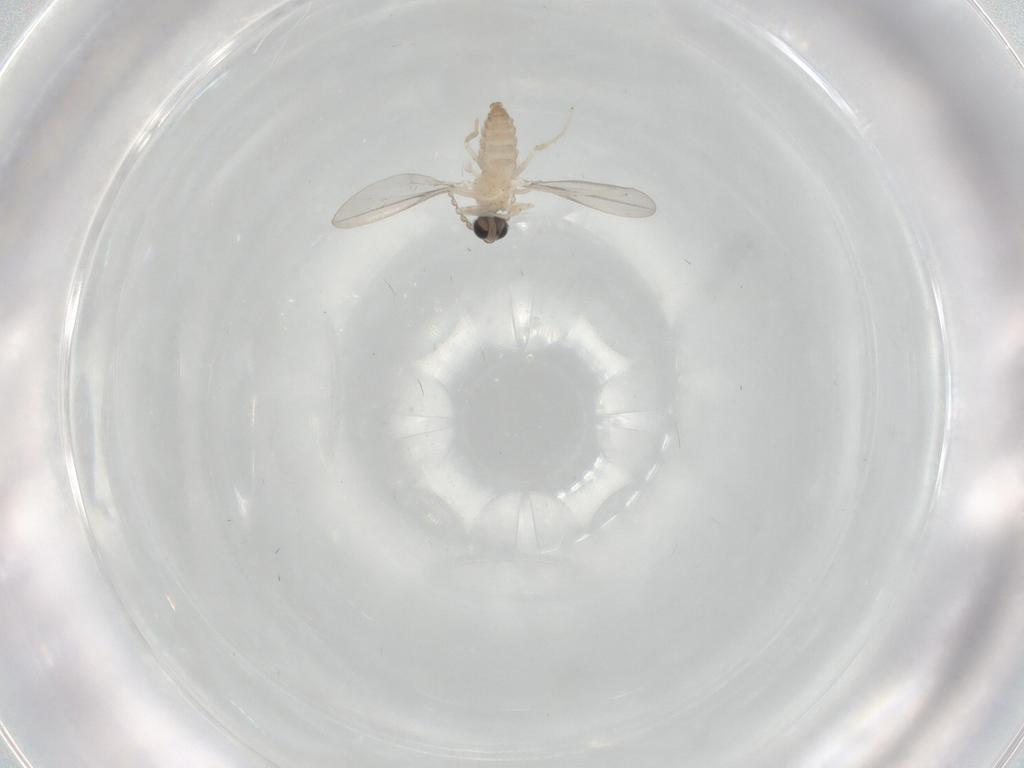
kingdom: Animalia
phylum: Arthropoda
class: Insecta
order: Diptera
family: Cecidomyiidae
